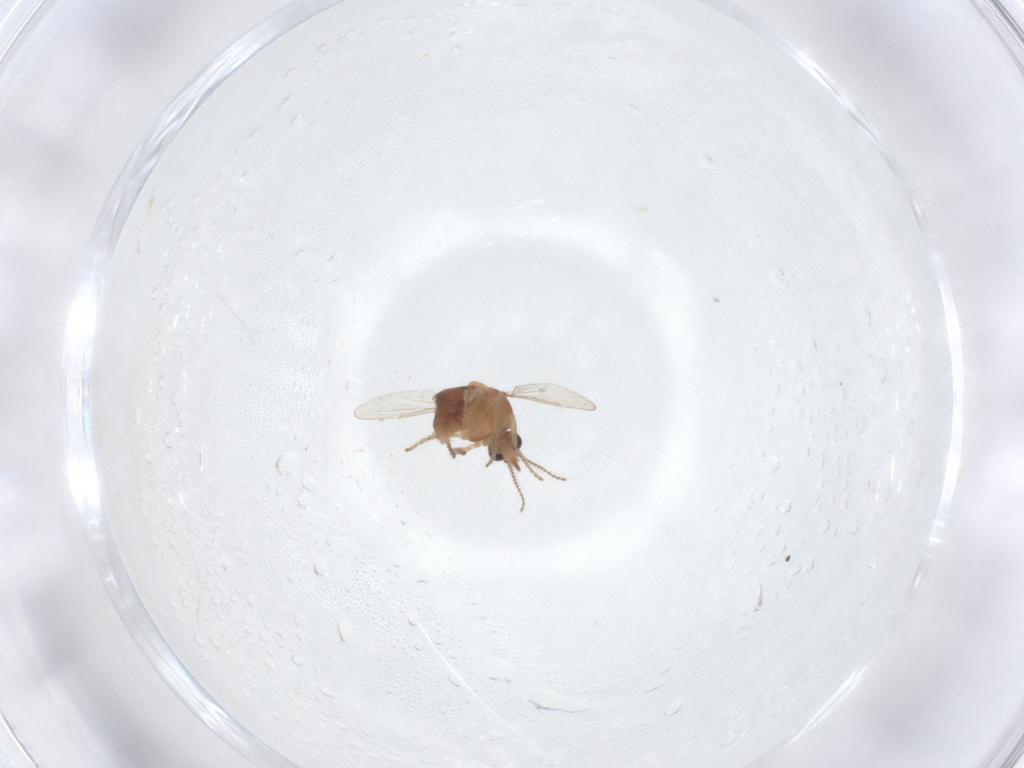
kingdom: Animalia
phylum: Arthropoda
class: Insecta
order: Diptera
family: Ceratopogonidae
